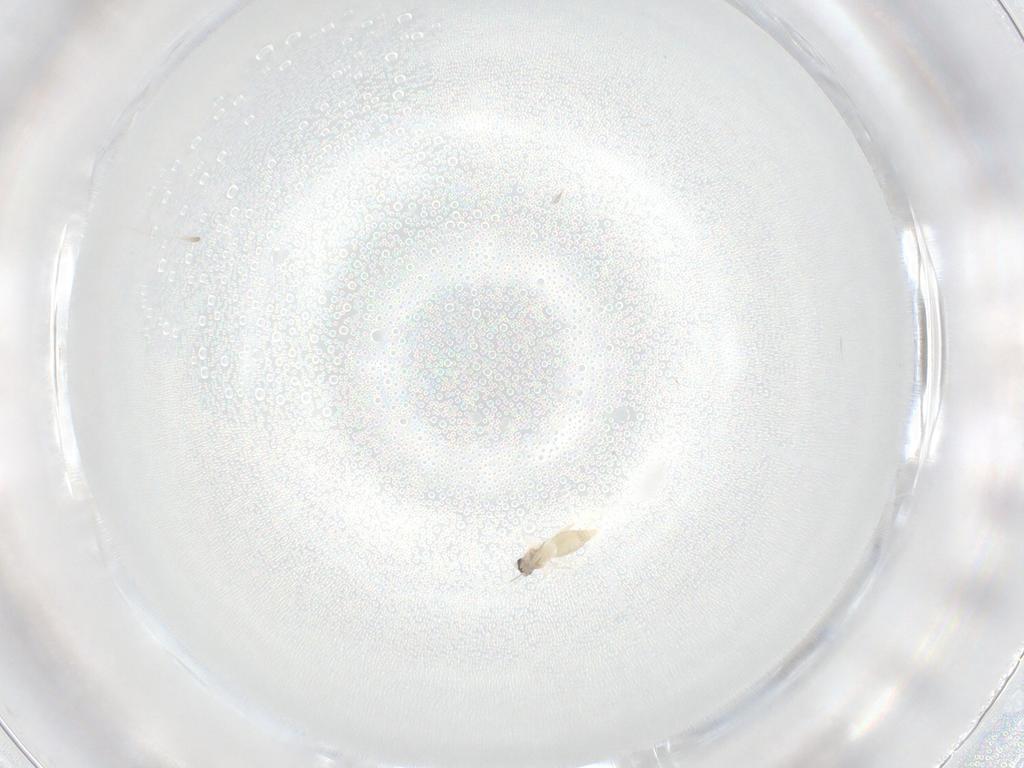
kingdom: Animalia
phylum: Arthropoda
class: Insecta
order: Diptera
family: Cecidomyiidae
